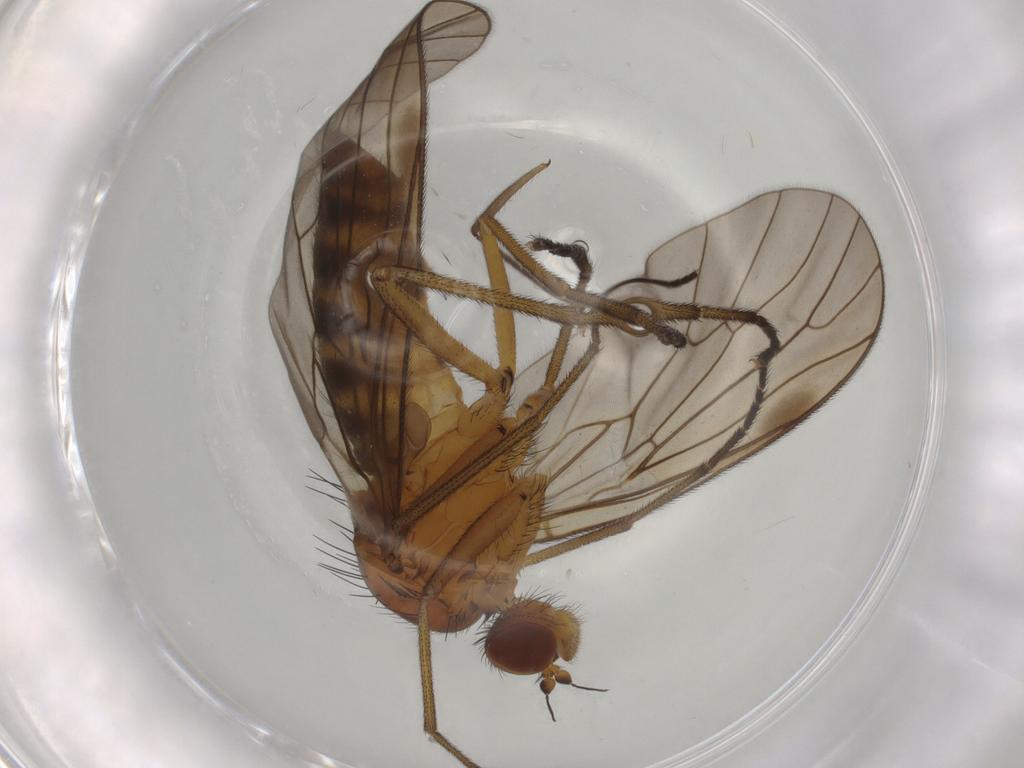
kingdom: Animalia
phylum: Arthropoda
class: Insecta
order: Diptera
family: Brachystomatidae
